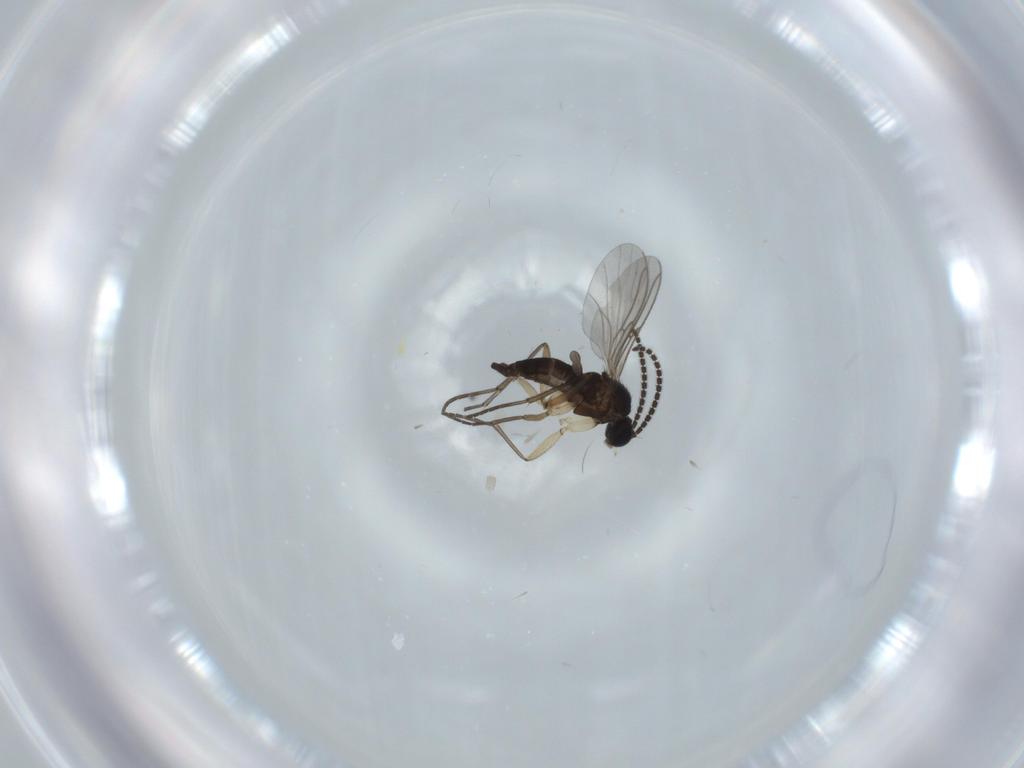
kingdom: Animalia
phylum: Arthropoda
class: Insecta
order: Diptera
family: Sciaridae
